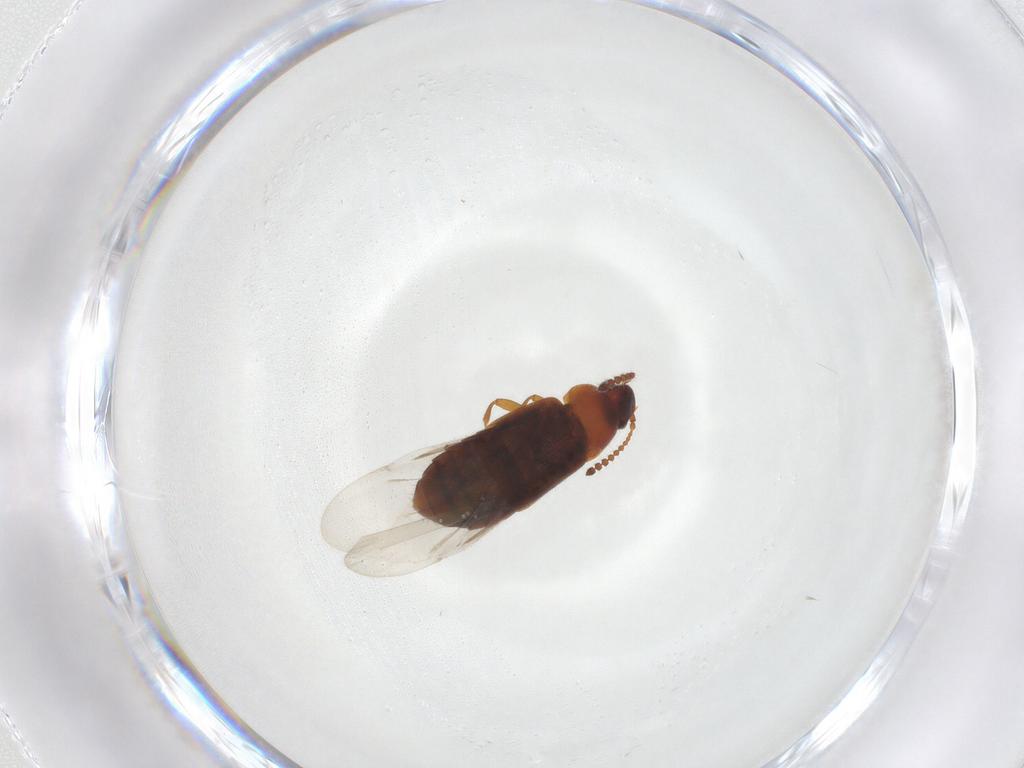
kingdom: Animalia
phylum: Arthropoda
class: Insecta
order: Coleoptera
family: Staphylinidae
